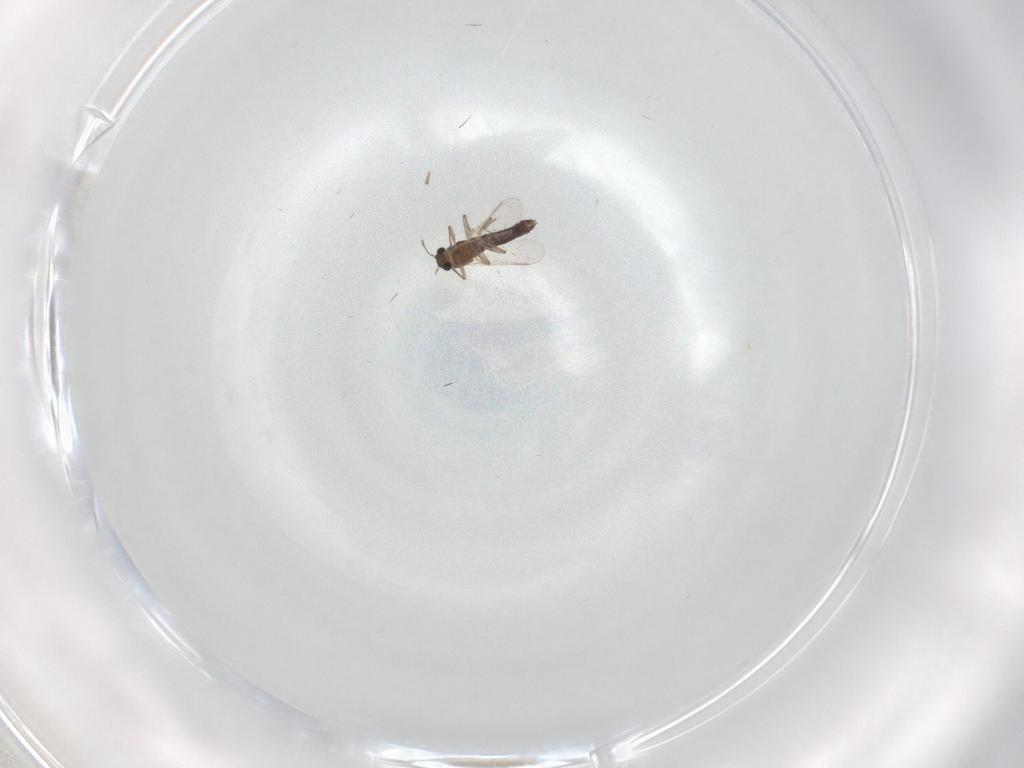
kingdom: Animalia
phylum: Arthropoda
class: Insecta
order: Diptera
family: Chironomidae
